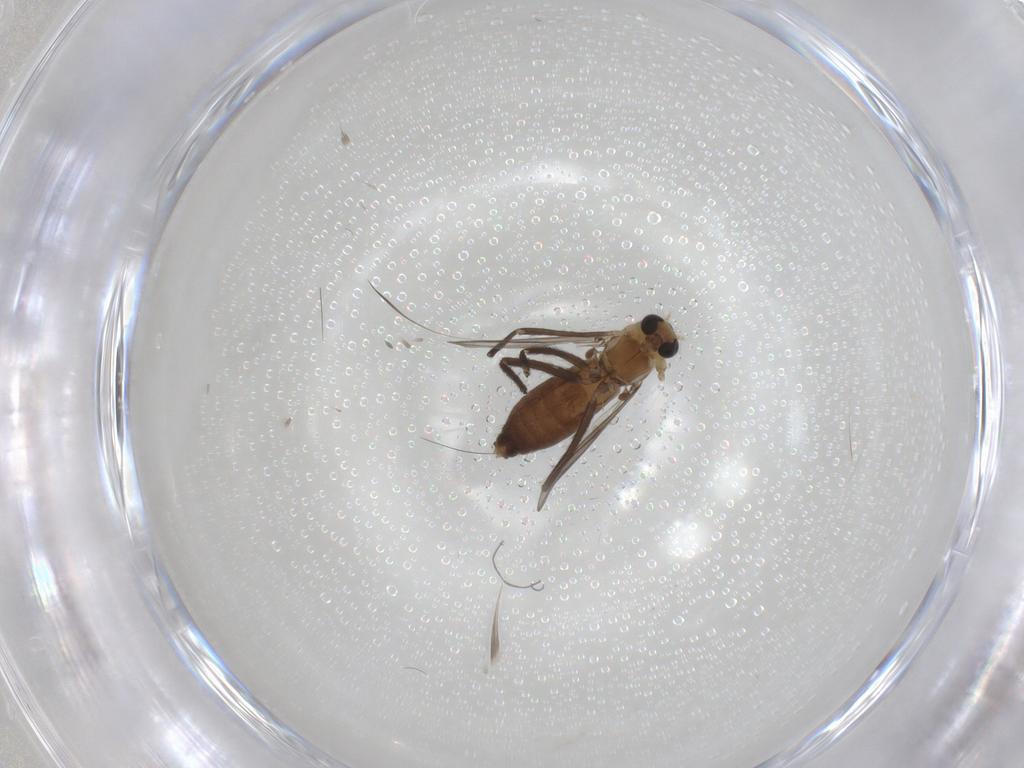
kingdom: Animalia
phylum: Arthropoda
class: Insecta
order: Diptera
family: Chironomidae
